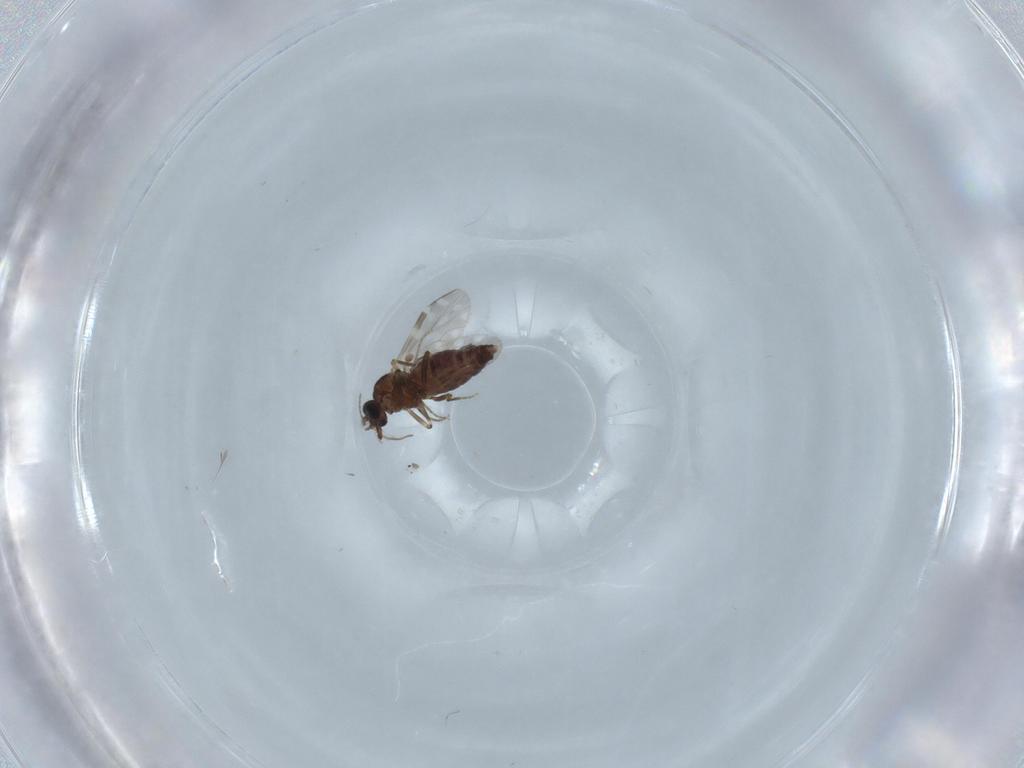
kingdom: Animalia
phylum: Arthropoda
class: Insecta
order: Diptera
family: Ceratopogonidae
